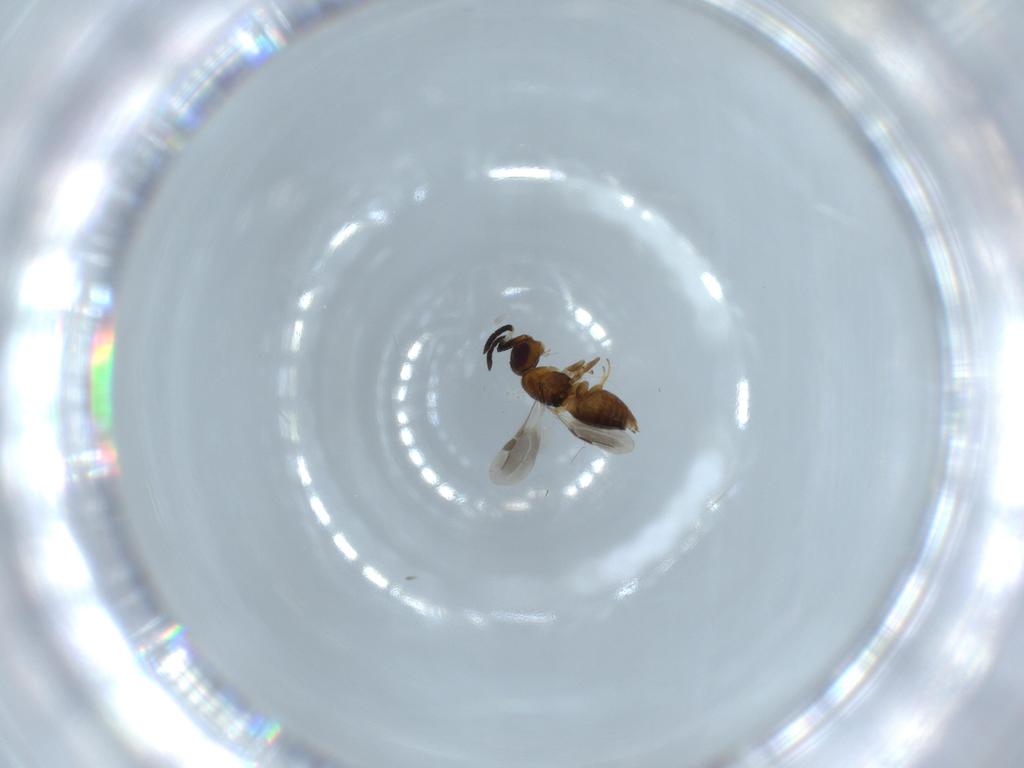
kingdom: Animalia
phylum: Arthropoda
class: Insecta
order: Hymenoptera
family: Megaspilidae
